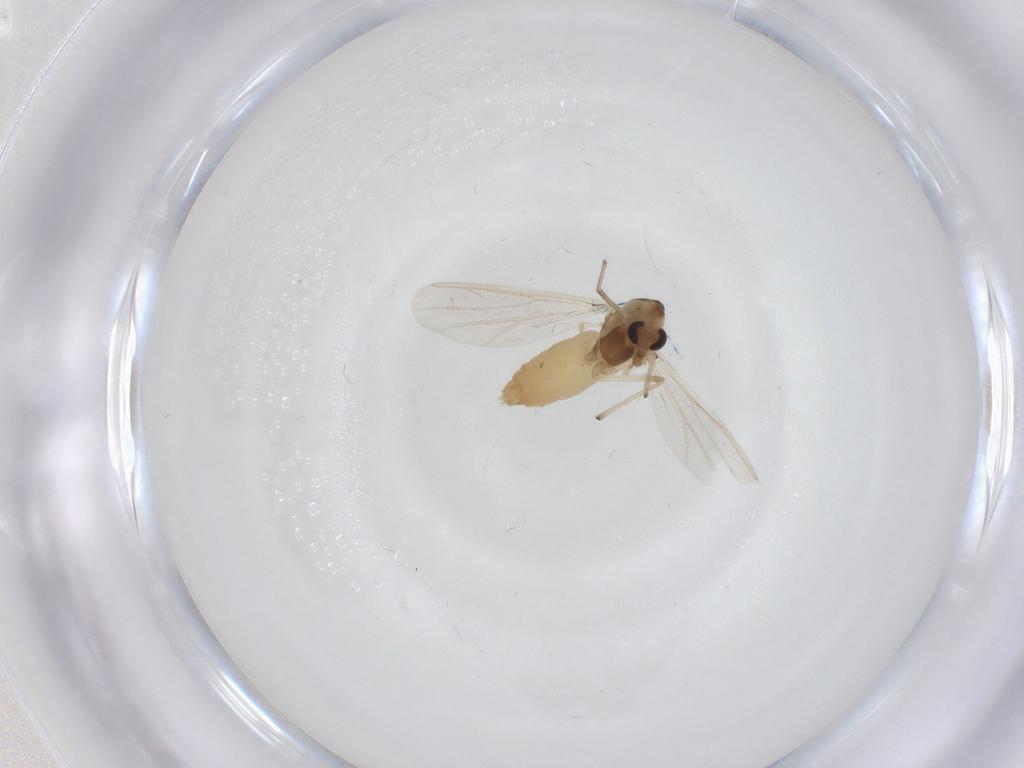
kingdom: Animalia
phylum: Arthropoda
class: Insecta
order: Diptera
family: Chironomidae
